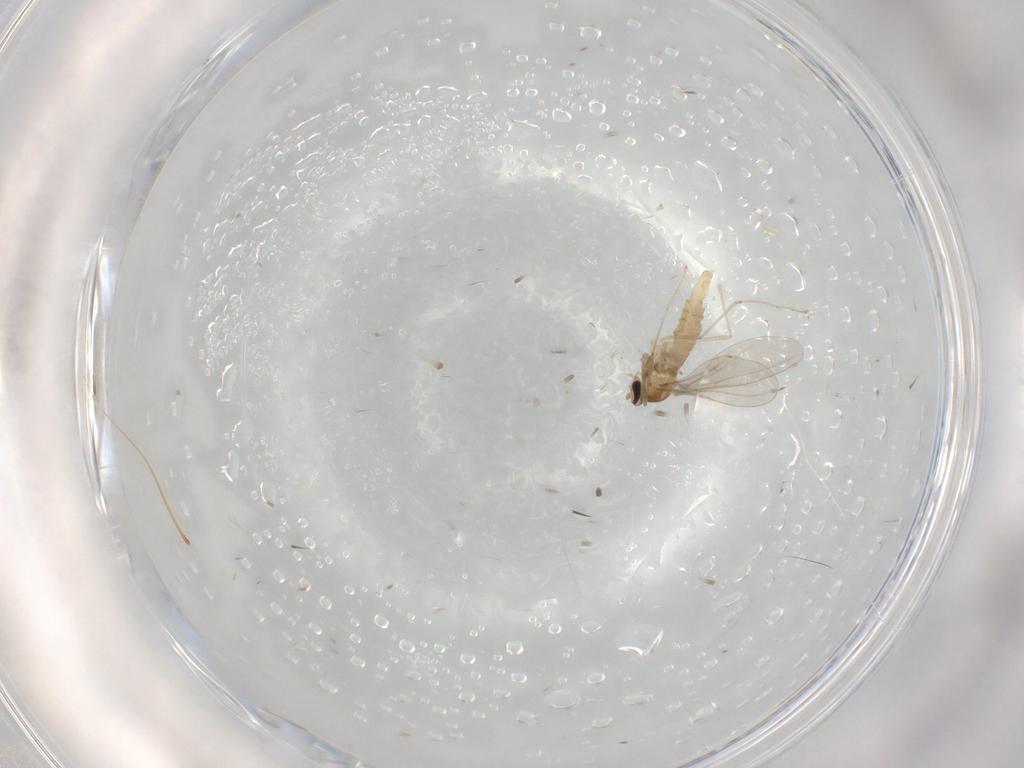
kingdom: Animalia
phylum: Arthropoda
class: Insecta
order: Diptera
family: Cecidomyiidae
